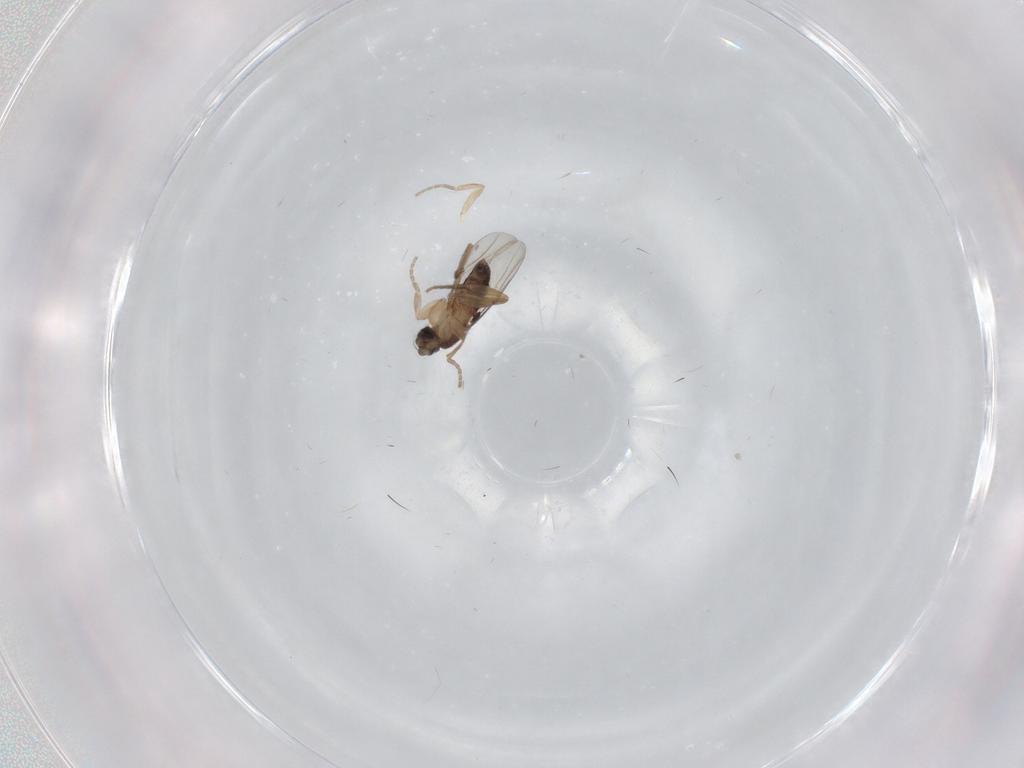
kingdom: Animalia
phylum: Arthropoda
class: Insecta
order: Diptera
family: Phoridae
